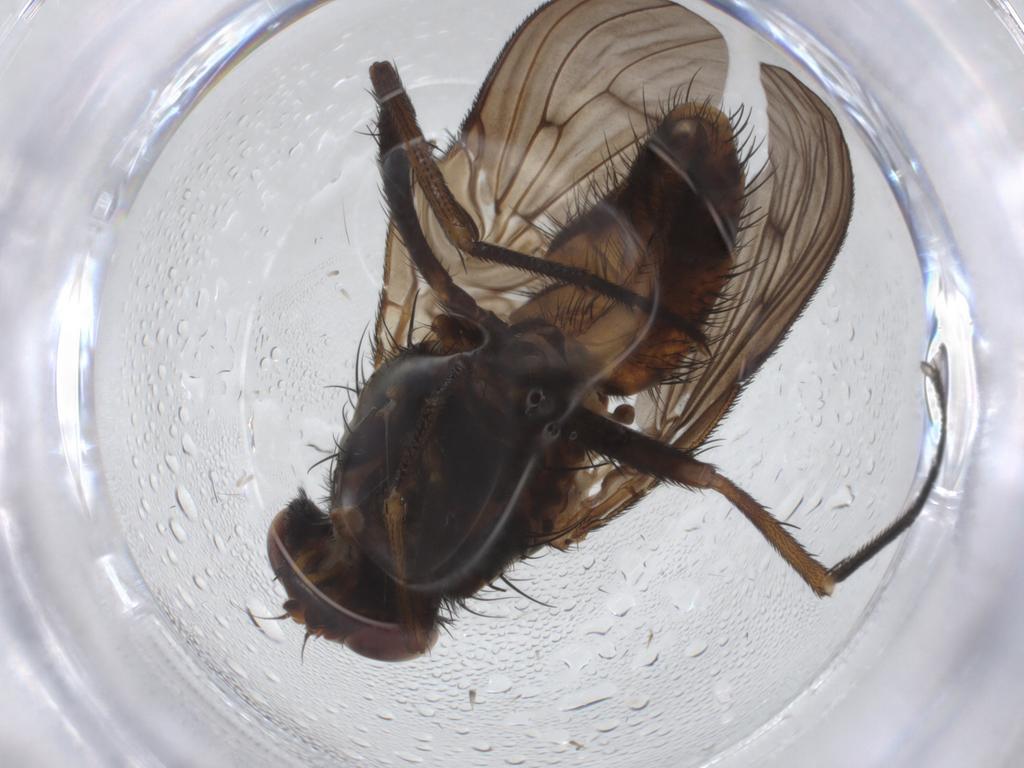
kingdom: Animalia
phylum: Arthropoda
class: Insecta
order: Diptera
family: Muscidae
